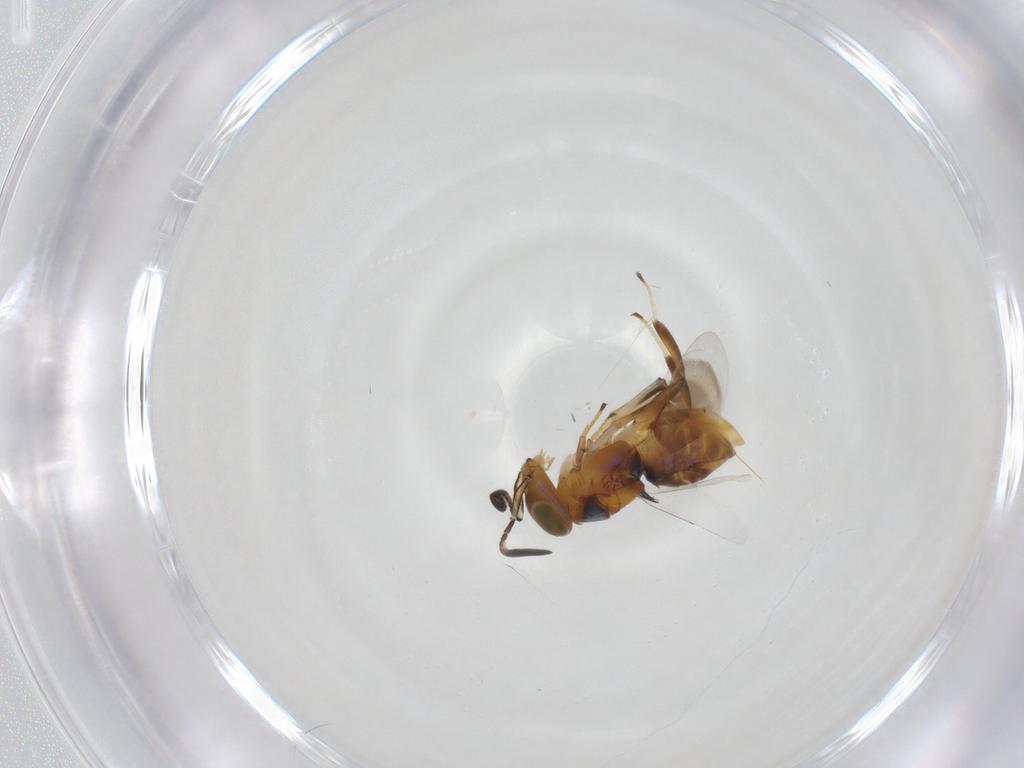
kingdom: Animalia
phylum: Arthropoda
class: Insecta
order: Hymenoptera
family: Encyrtidae
